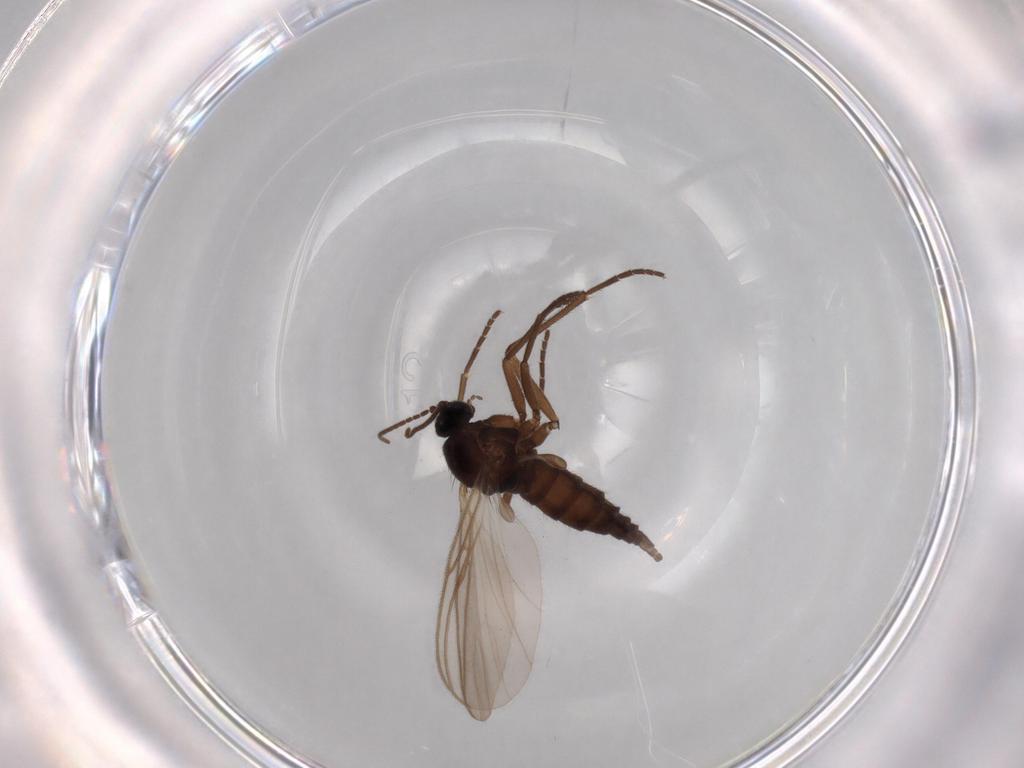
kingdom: Animalia
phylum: Arthropoda
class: Insecta
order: Diptera
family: Sciaridae
